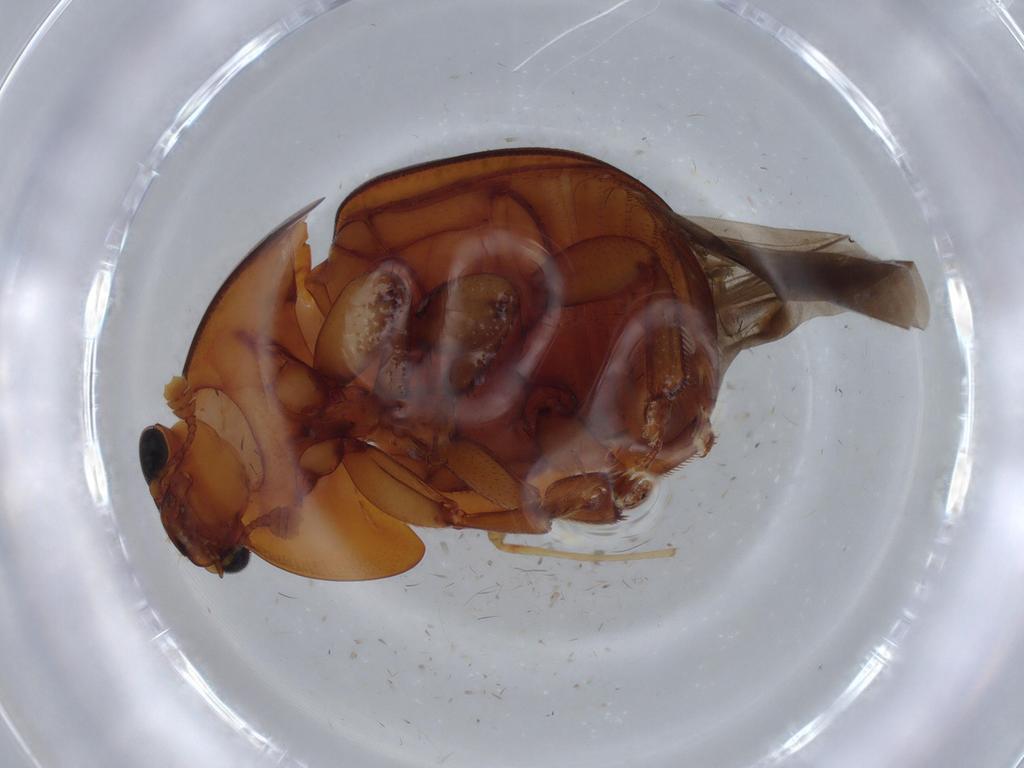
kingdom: Animalia
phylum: Arthropoda
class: Insecta
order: Coleoptera
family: Nitidulidae
